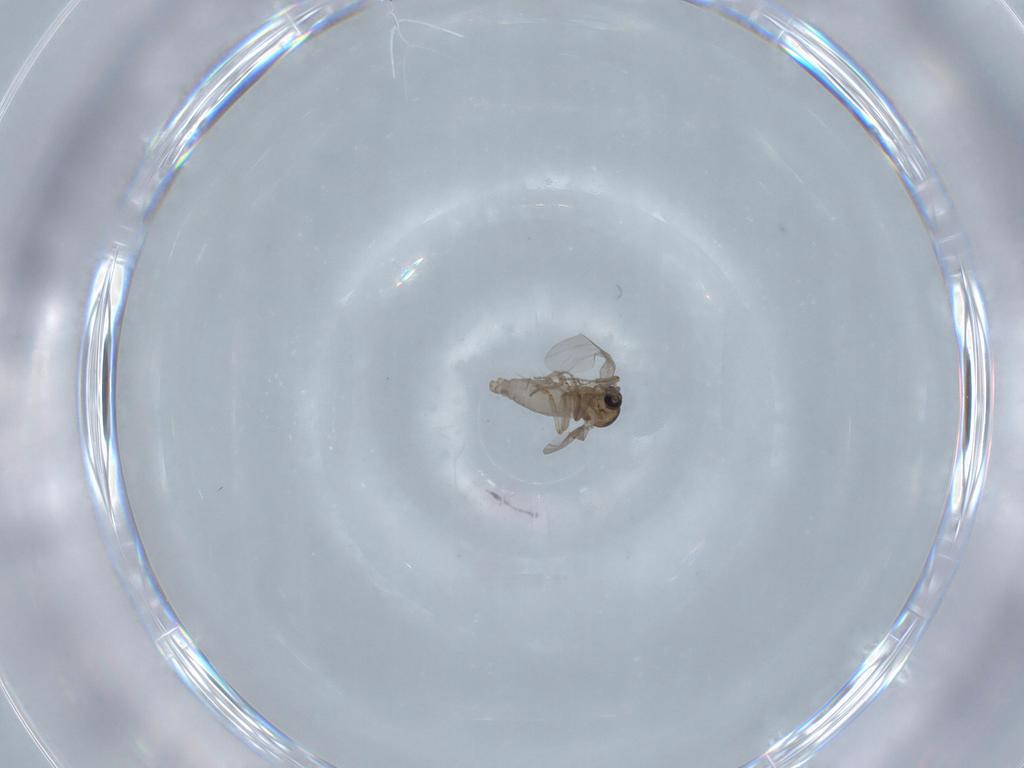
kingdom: Animalia
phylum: Arthropoda
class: Insecta
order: Diptera
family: Ceratopogonidae
